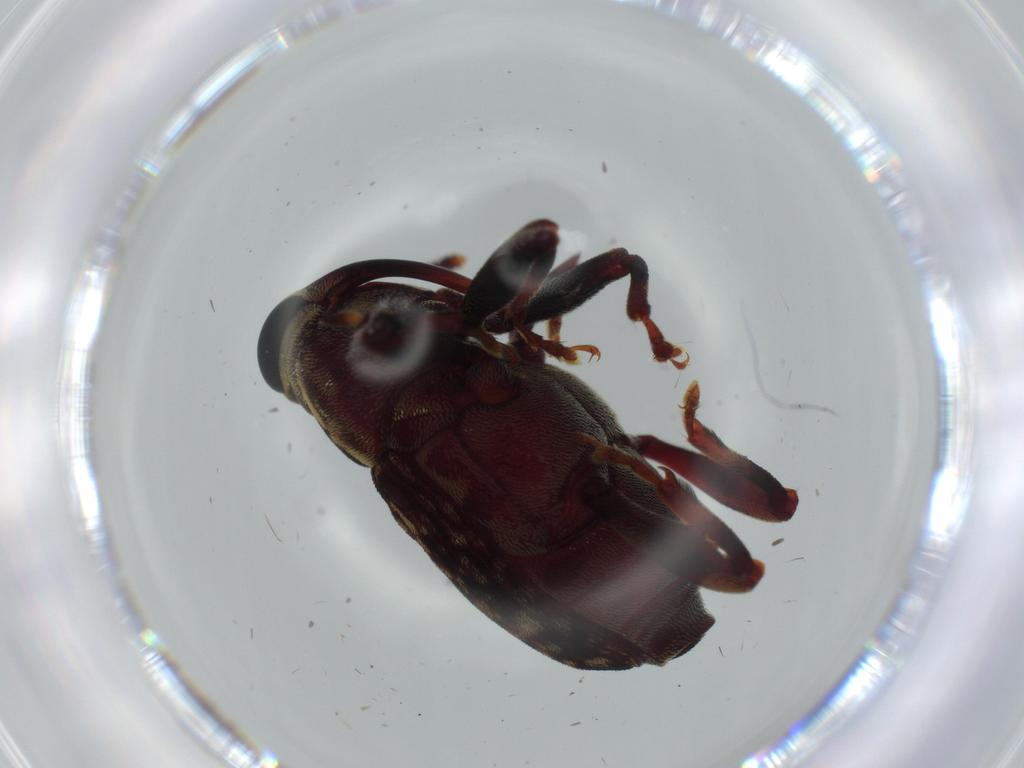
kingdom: Animalia
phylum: Arthropoda
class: Insecta
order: Coleoptera
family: Curculionidae
